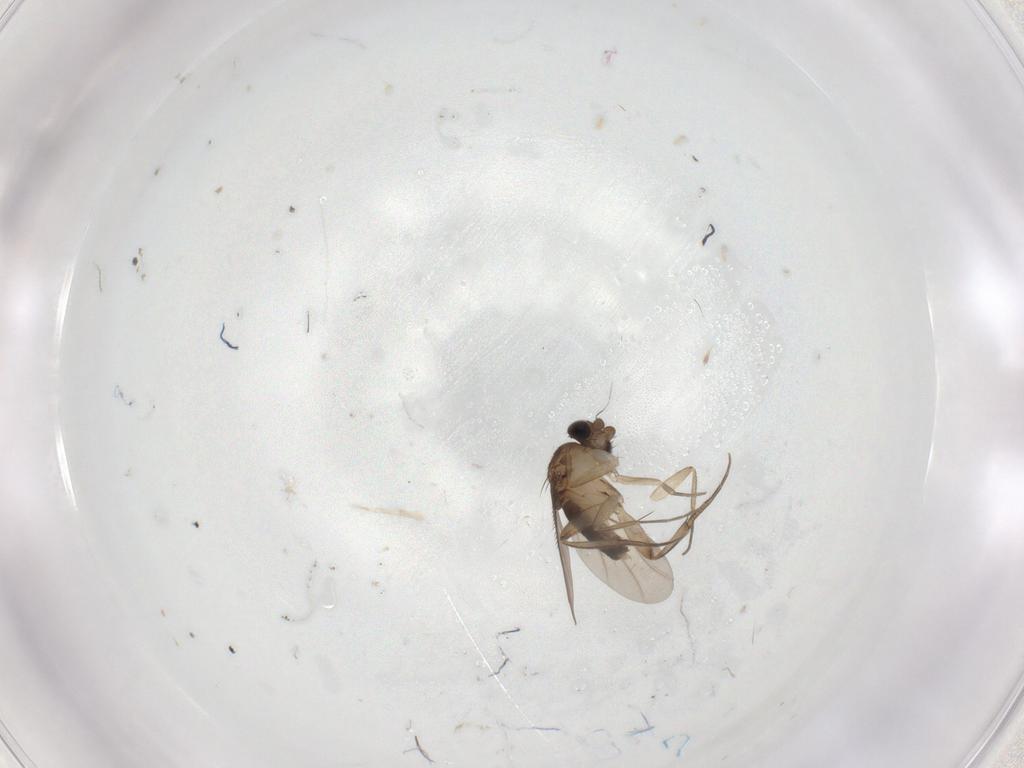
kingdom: Animalia
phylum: Arthropoda
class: Insecta
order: Diptera
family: Phoridae
